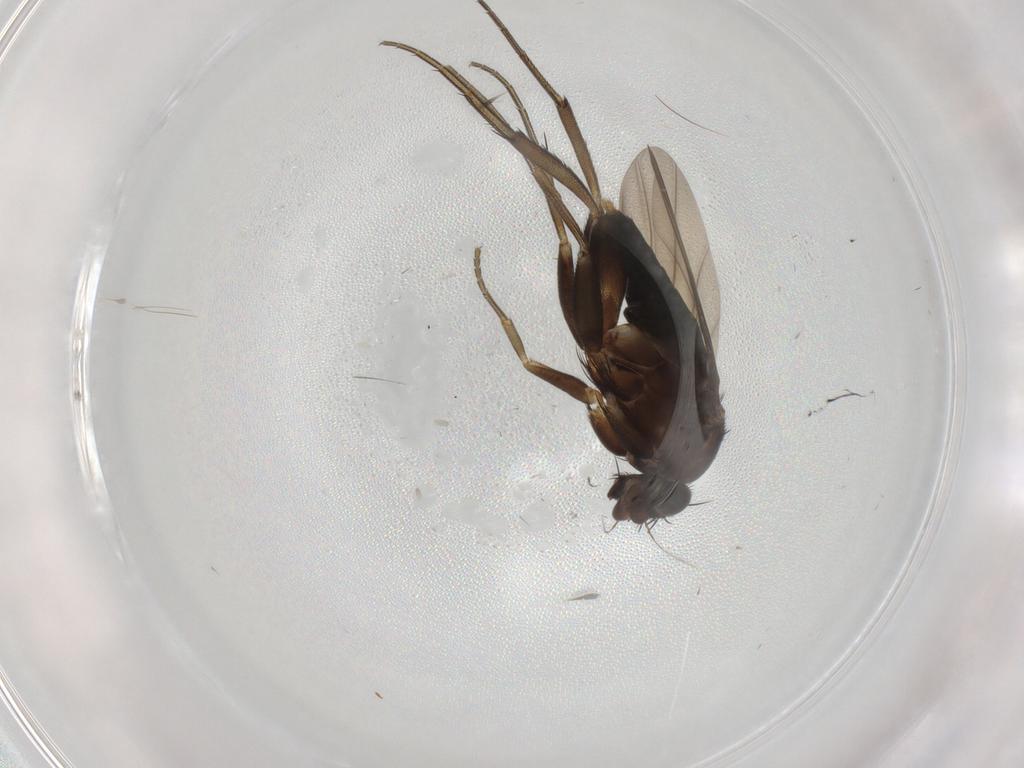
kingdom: Animalia
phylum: Arthropoda
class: Insecta
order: Diptera
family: Phoridae
